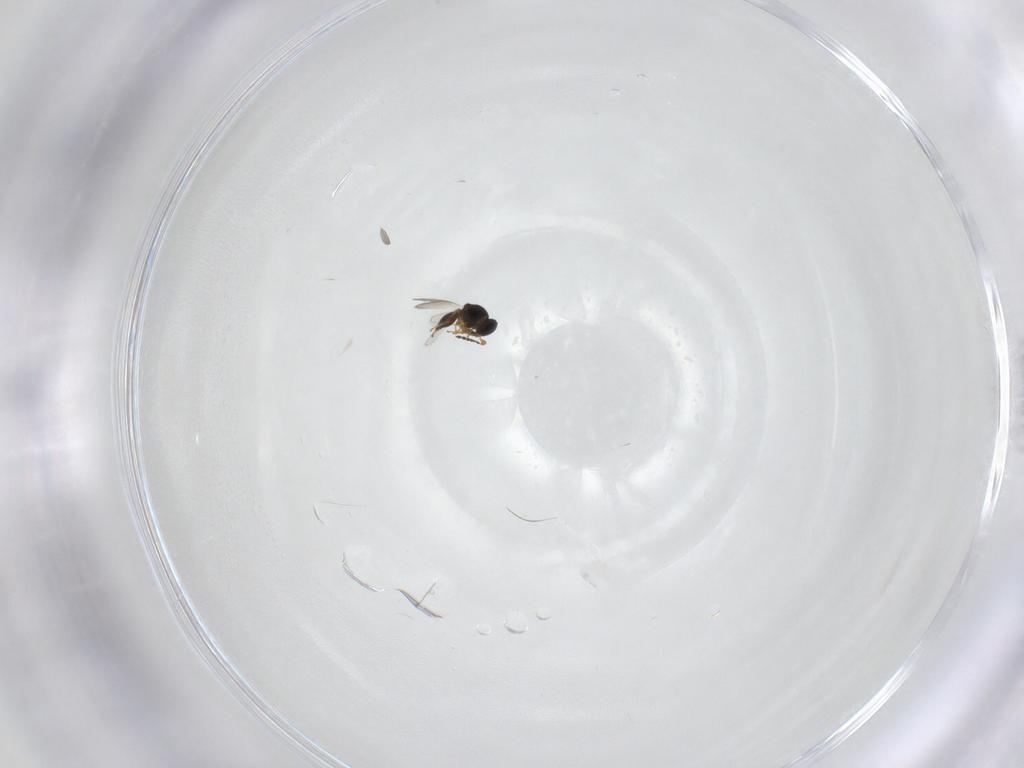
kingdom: Animalia
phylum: Arthropoda
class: Insecta
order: Hymenoptera
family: Platygastridae
